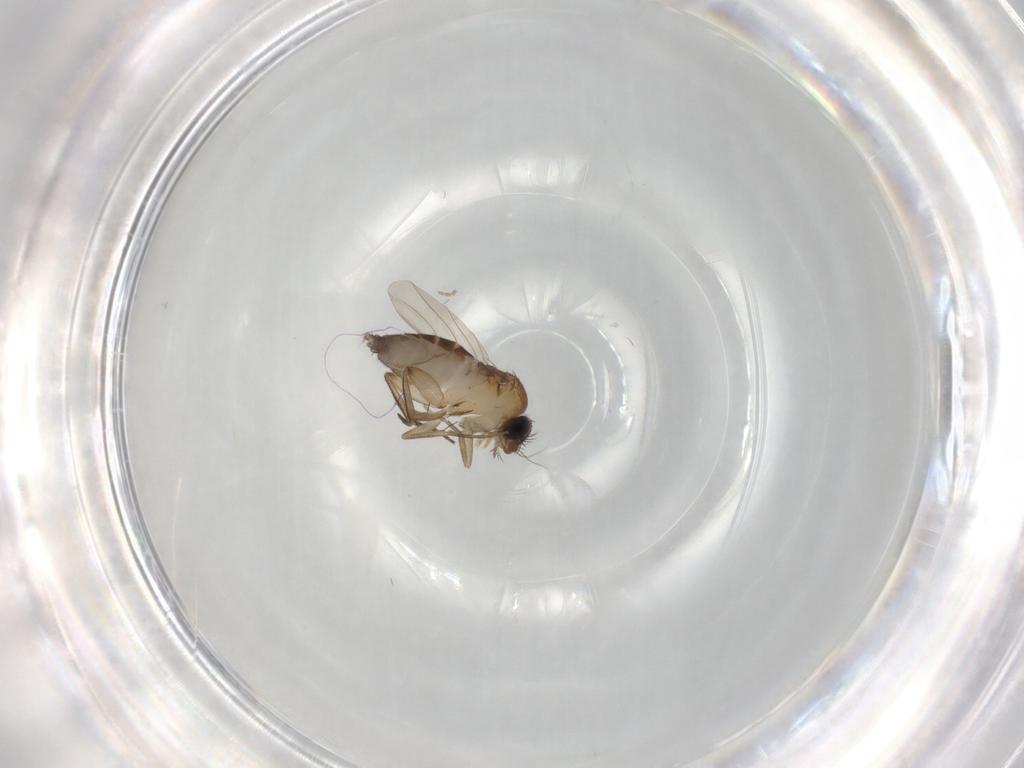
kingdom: Animalia
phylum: Arthropoda
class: Insecta
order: Diptera
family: Phoridae
